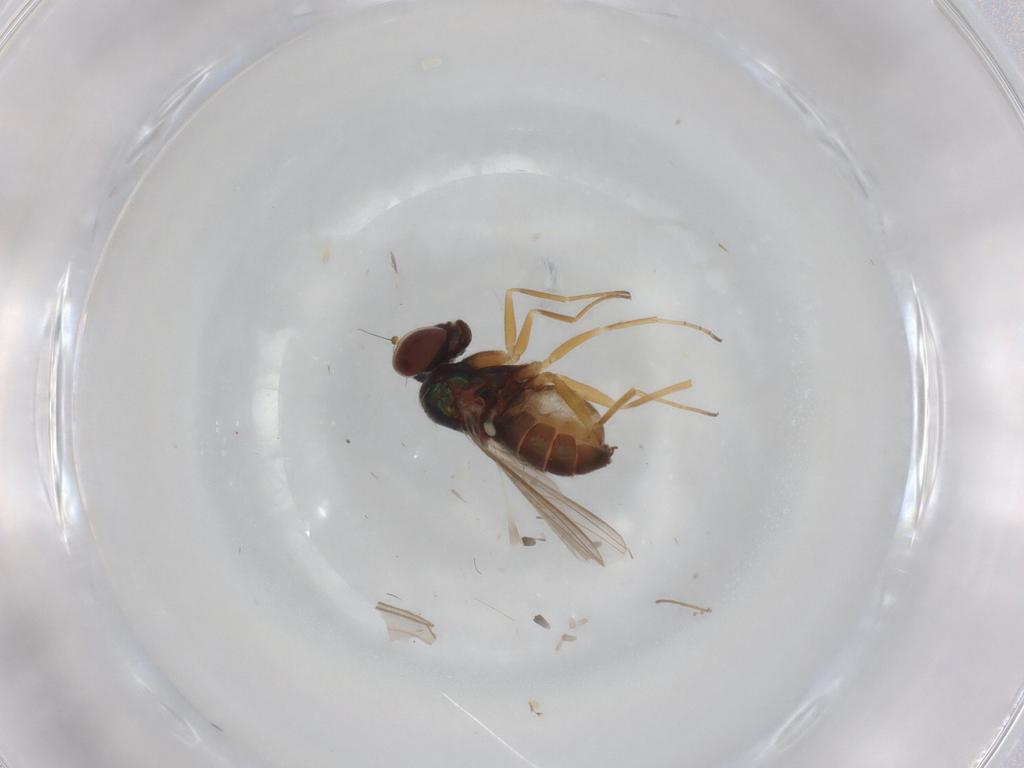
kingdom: Animalia
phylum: Arthropoda
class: Insecta
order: Diptera
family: Dolichopodidae
